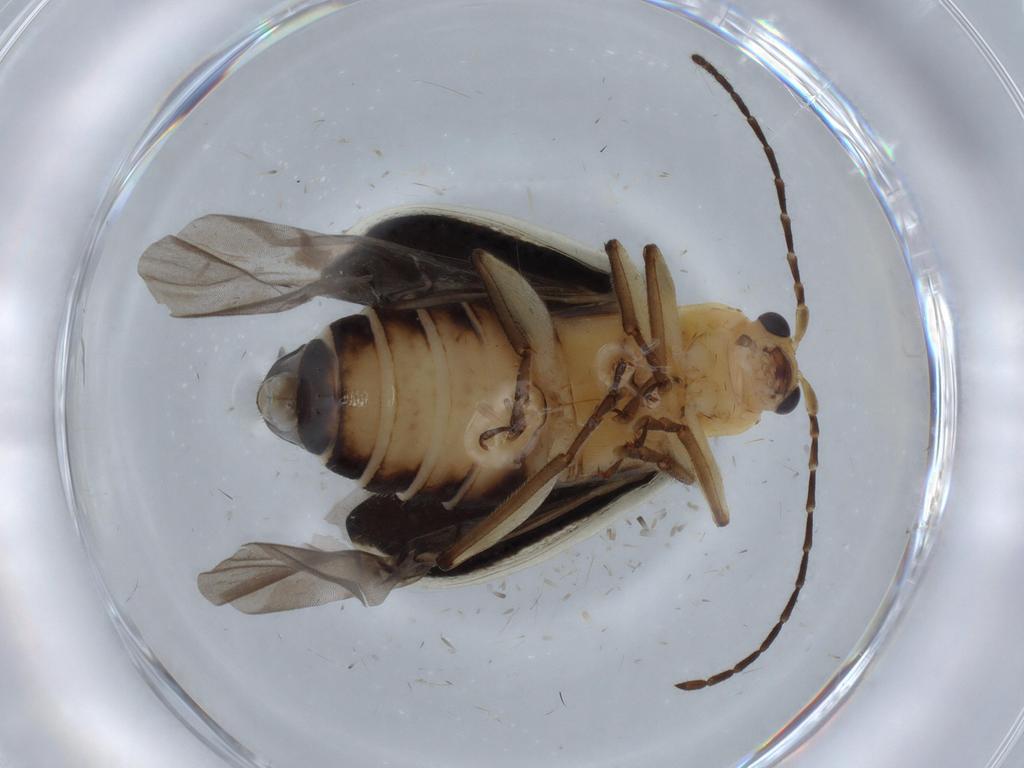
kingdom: Animalia
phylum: Arthropoda
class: Insecta
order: Coleoptera
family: Chrysomelidae
